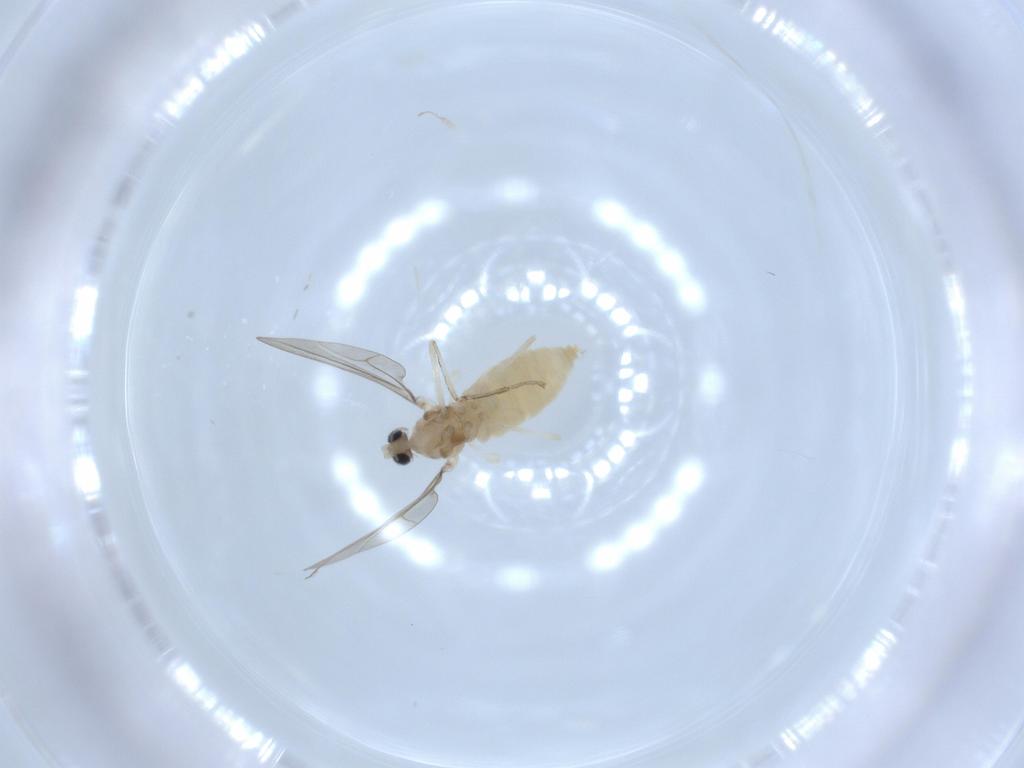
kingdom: Animalia
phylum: Arthropoda
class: Insecta
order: Diptera
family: Cecidomyiidae
